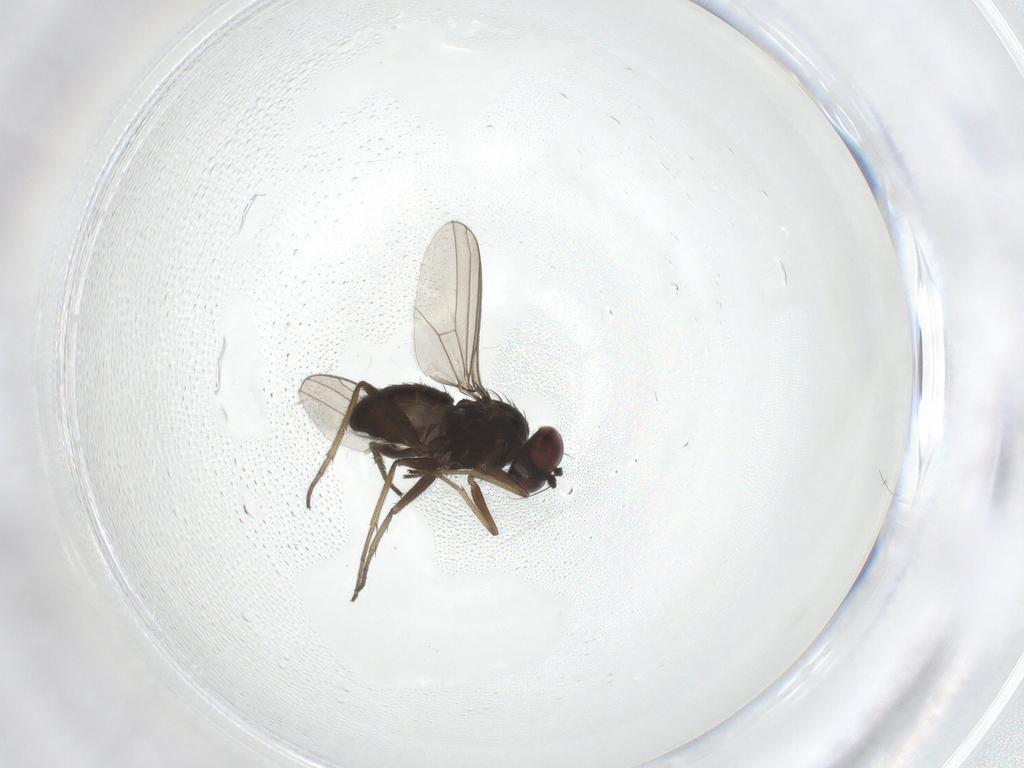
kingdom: Animalia
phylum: Arthropoda
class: Insecta
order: Diptera
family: Dolichopodidae
